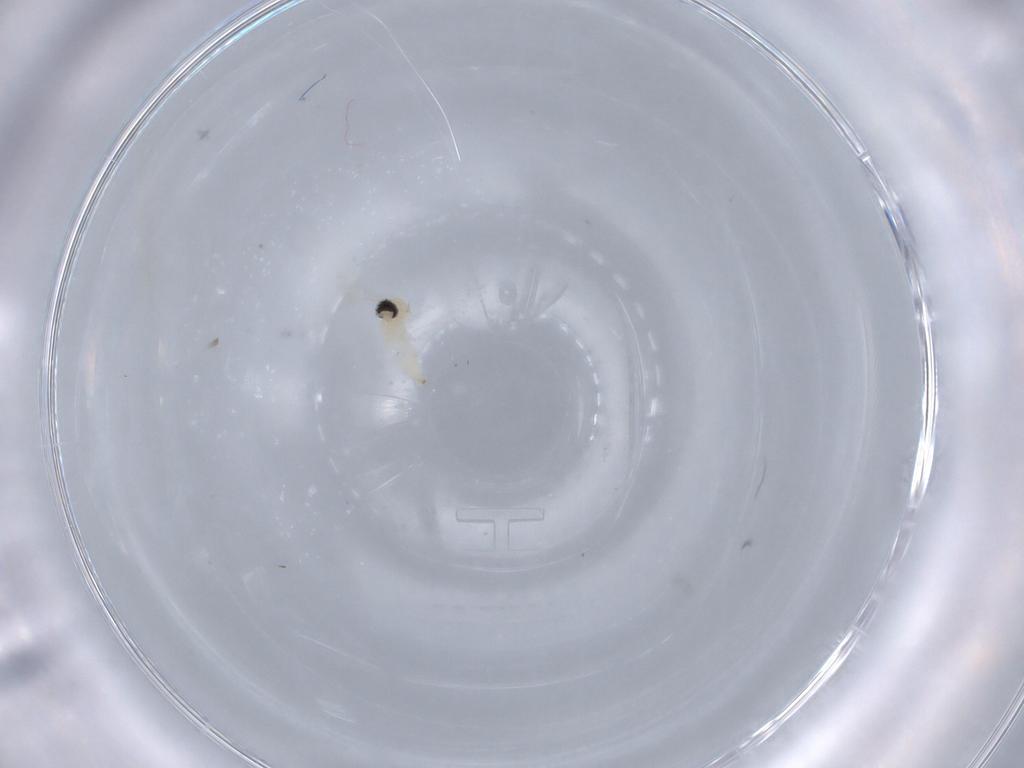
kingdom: Animalia
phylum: Arthropoda
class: Insecta
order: Diptera
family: Cecidomyiidae
